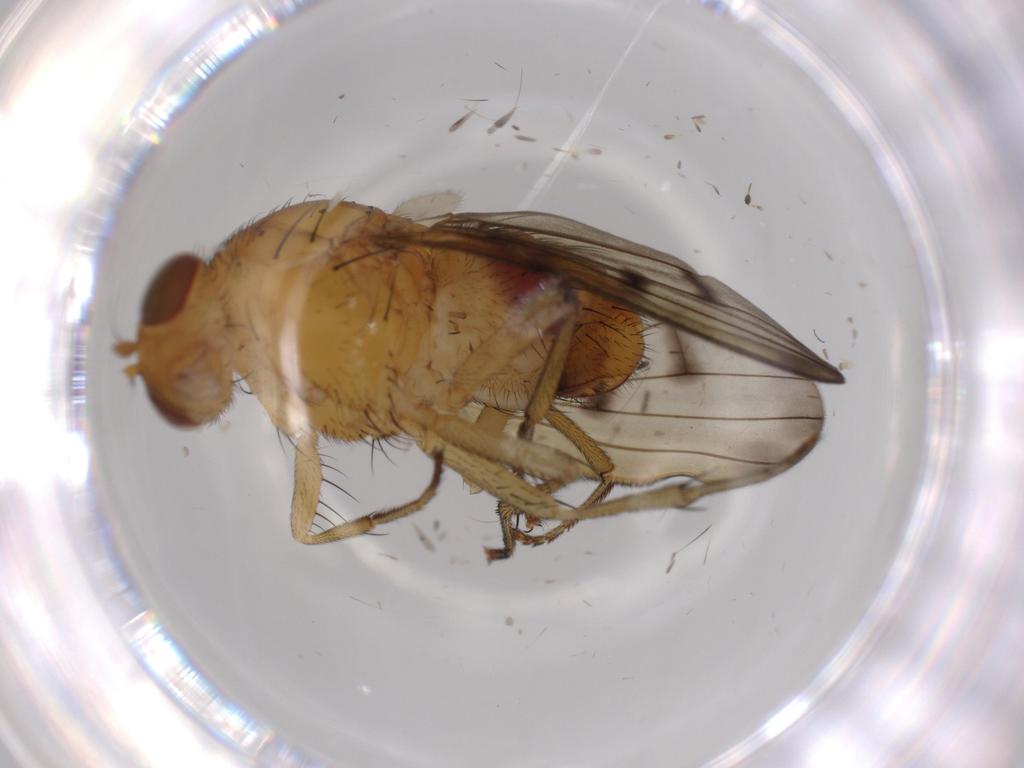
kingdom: Animalia
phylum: Arthropoda
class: Insecta
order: Diptera
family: Lauxaniidae
